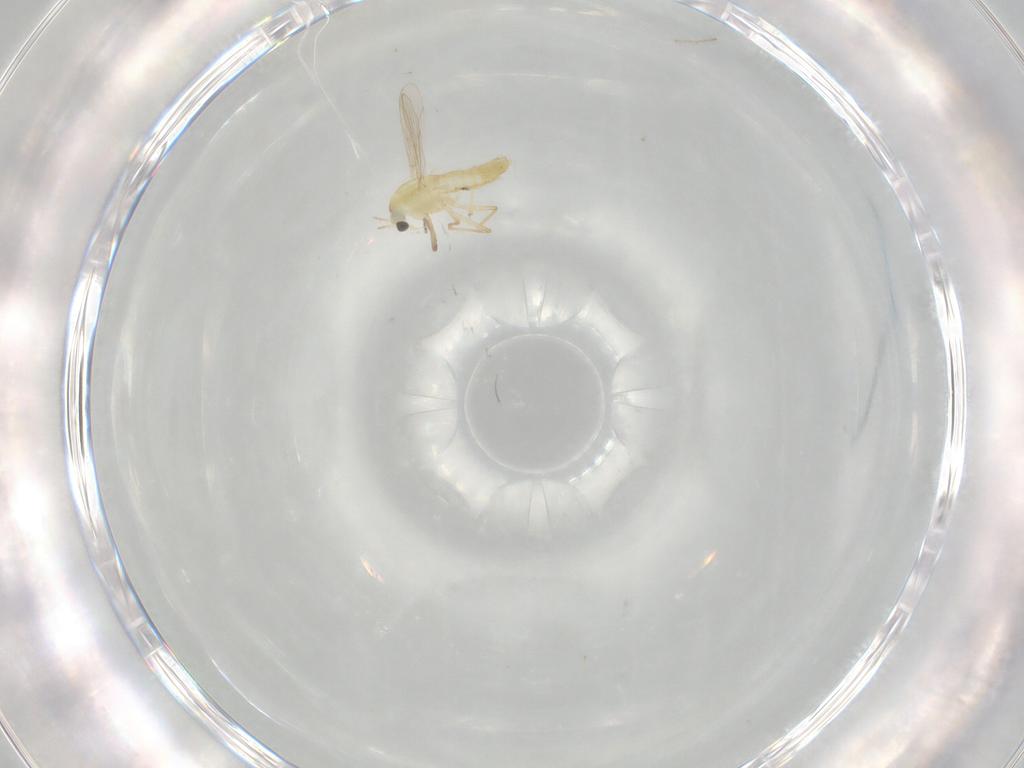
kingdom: Animalia
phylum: Arthropoda
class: Insecta
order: Diptera
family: Chironomidae
